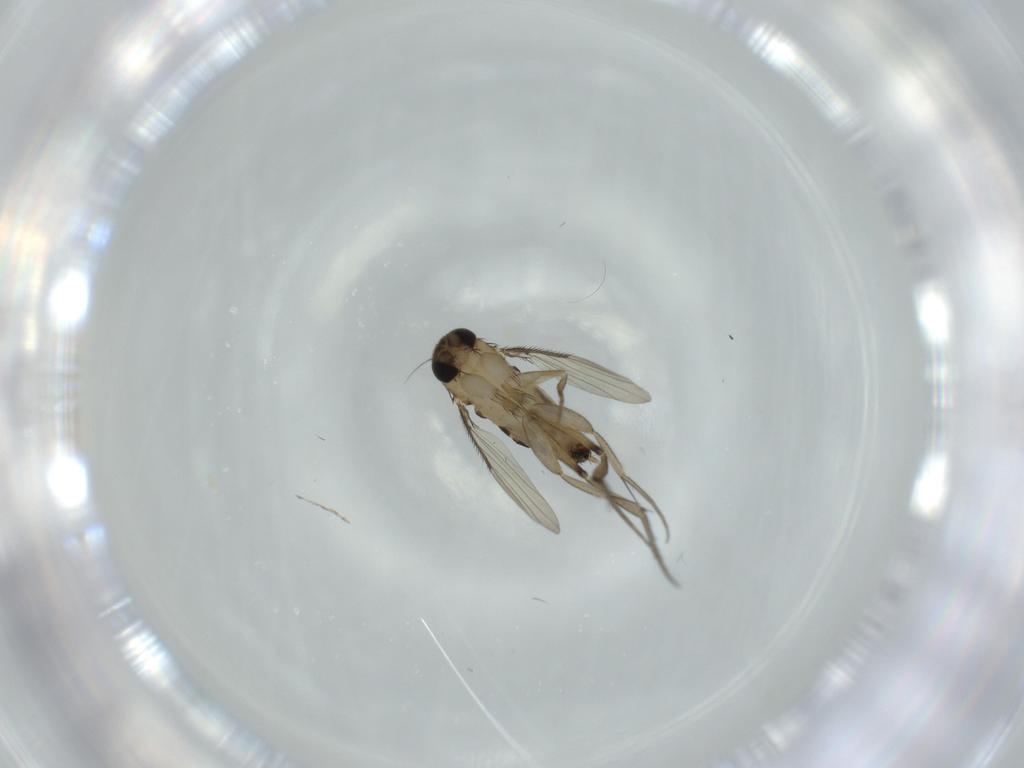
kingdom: Animalia
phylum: Arthropoda
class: Insecta
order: Diptera
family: Phoridae
